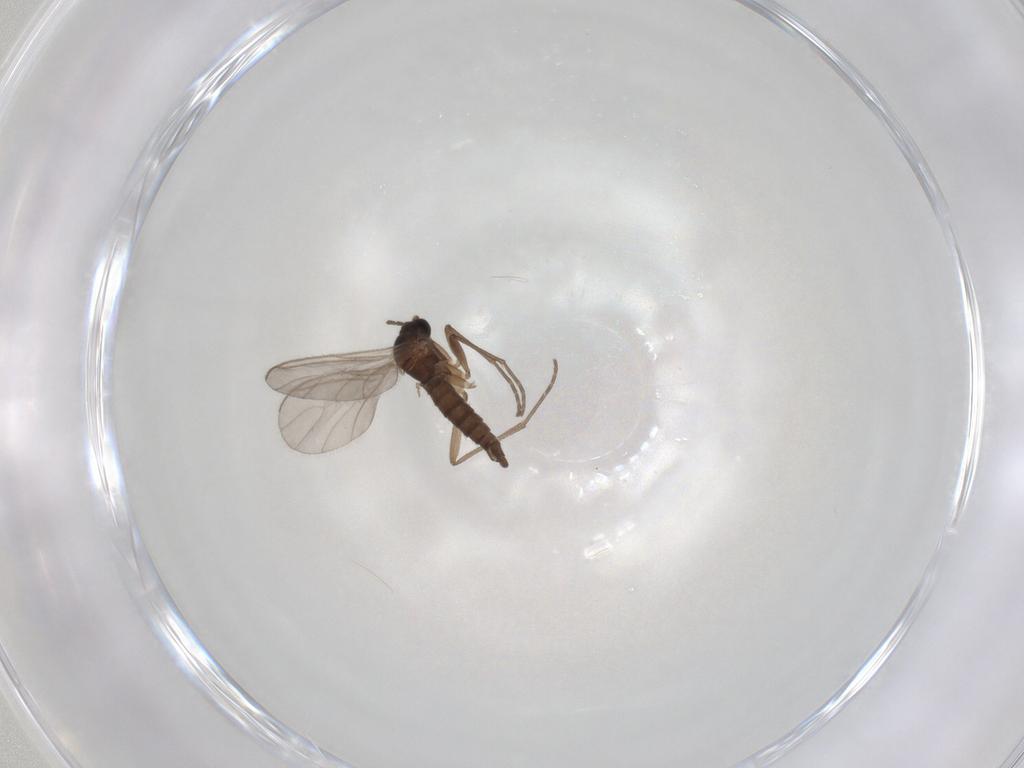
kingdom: Animalia
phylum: Arthropoda
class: Insecta
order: Diptera
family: Sciaridae
